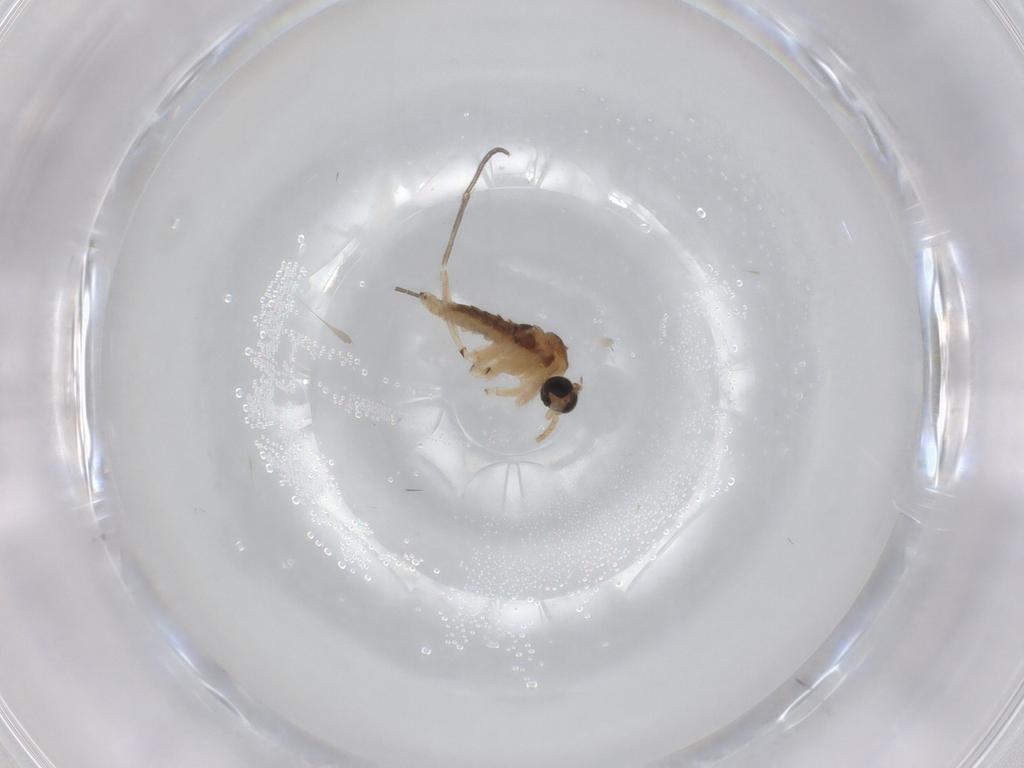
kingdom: Animalia
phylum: Arthropoda
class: Insecta
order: Diptera
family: Sciaridae
